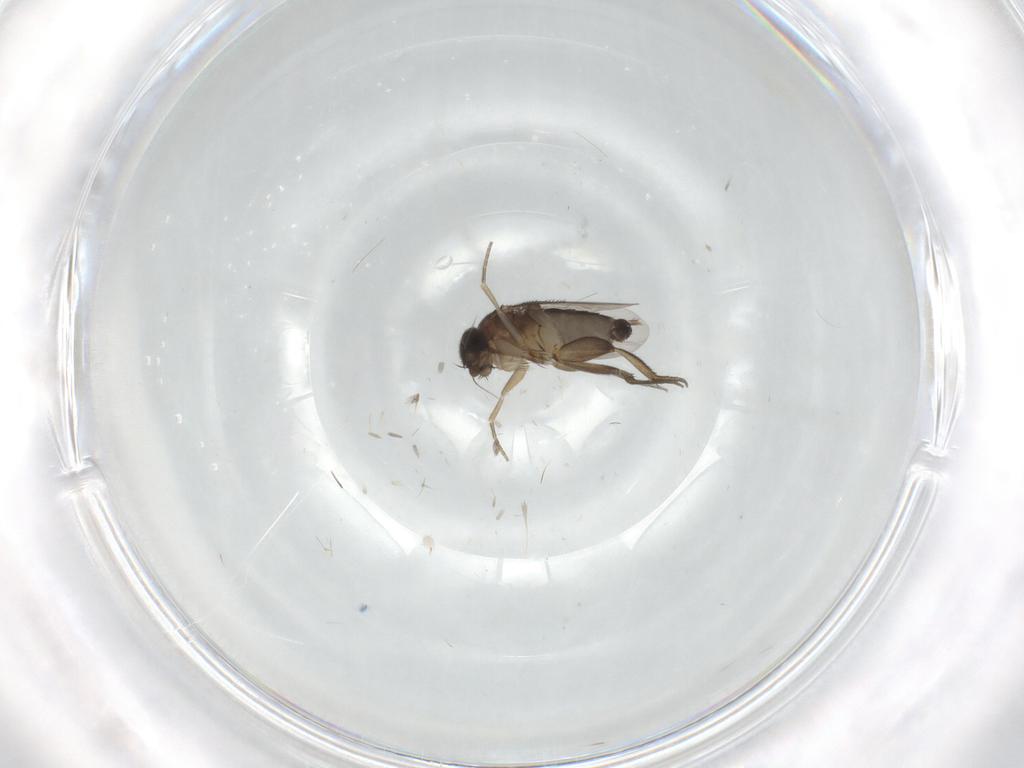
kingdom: Animalia
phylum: Arthropoda
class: Insecta
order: Diptera
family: Phoridae
